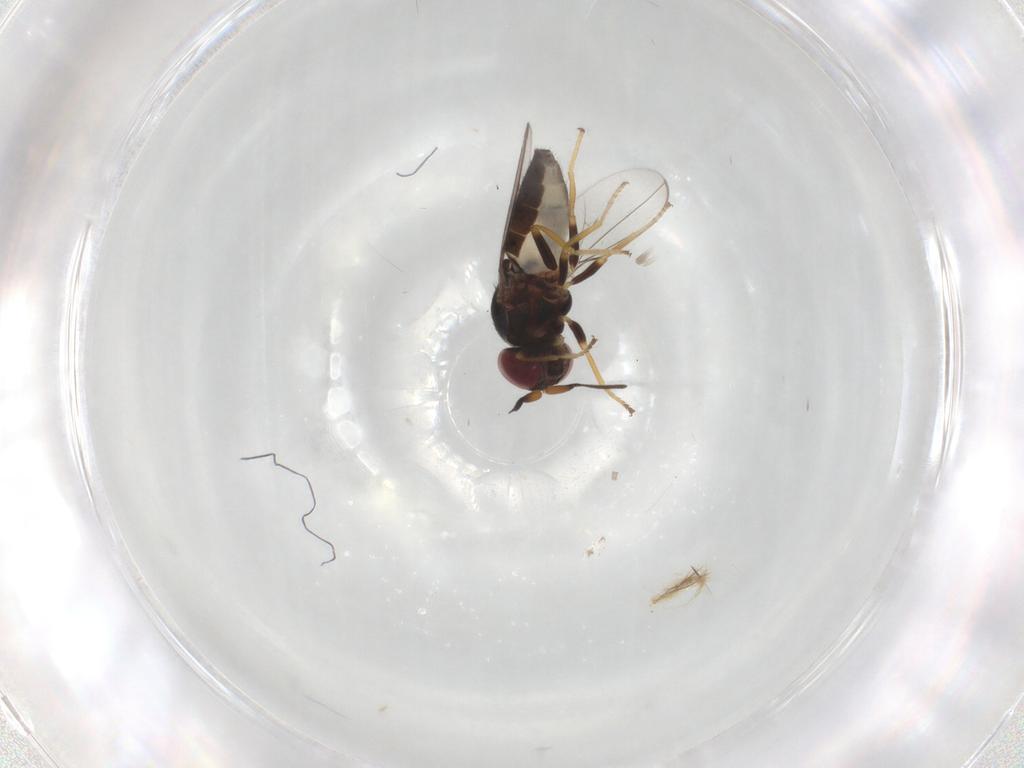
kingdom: Animalia
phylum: Arthropoda
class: Insecta
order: Diptera
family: Chloropidae
